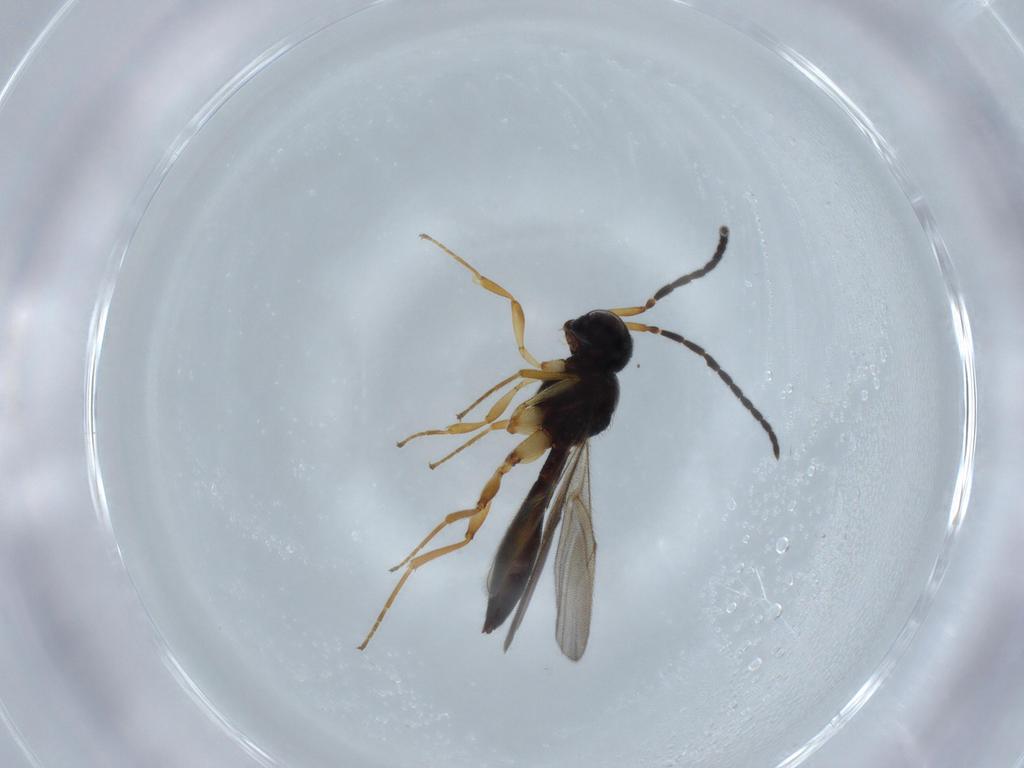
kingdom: Animalia
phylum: Arthropoda
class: Insecta
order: Hymenoptera
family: Scelionidae
